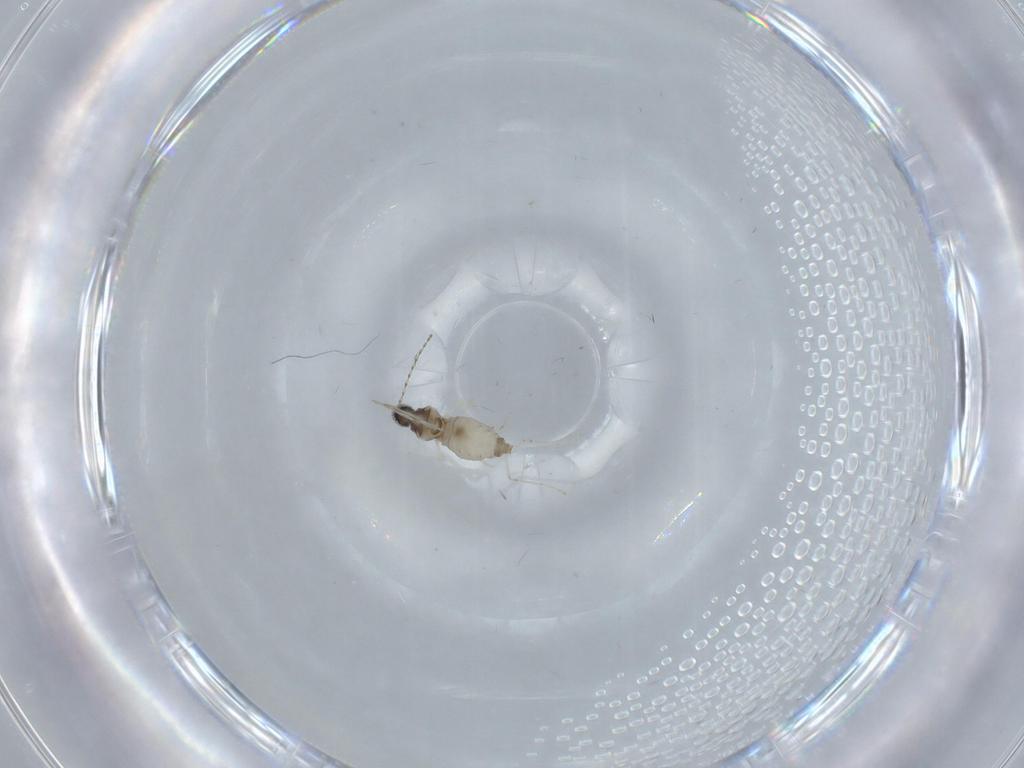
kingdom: Animalia
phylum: Arthropoda
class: Insecta
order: Diptera
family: Cecidomyiidae
